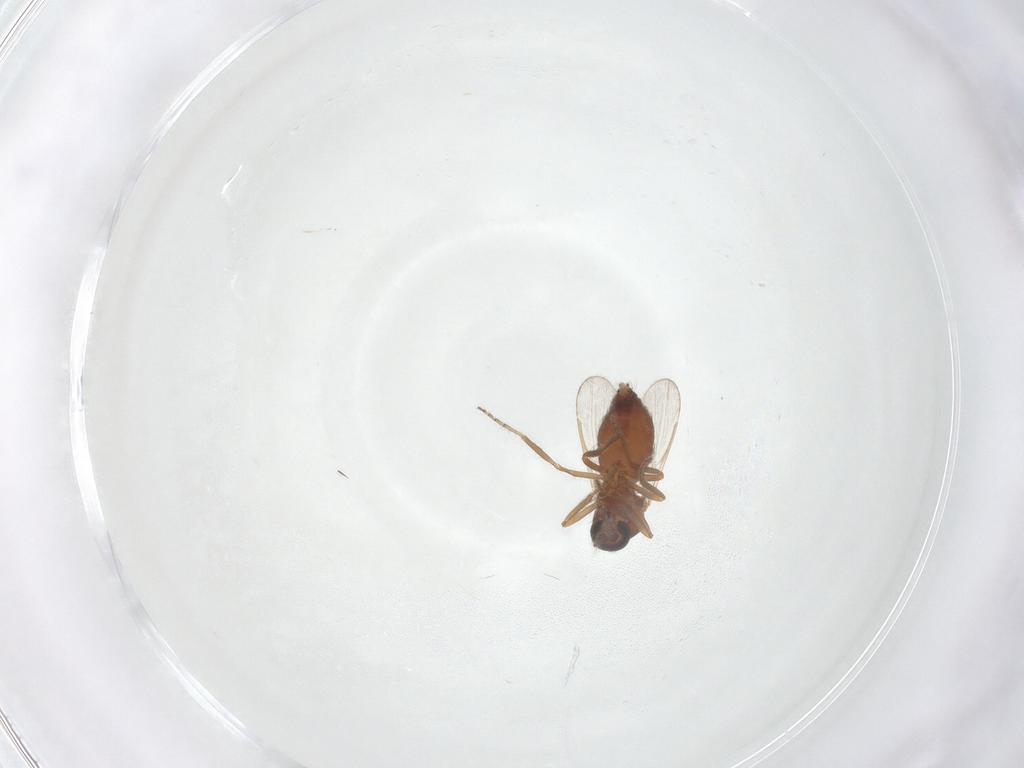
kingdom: Animalia
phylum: Arthropoda
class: Insecta
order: Diptera
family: Ceratopogonidae
